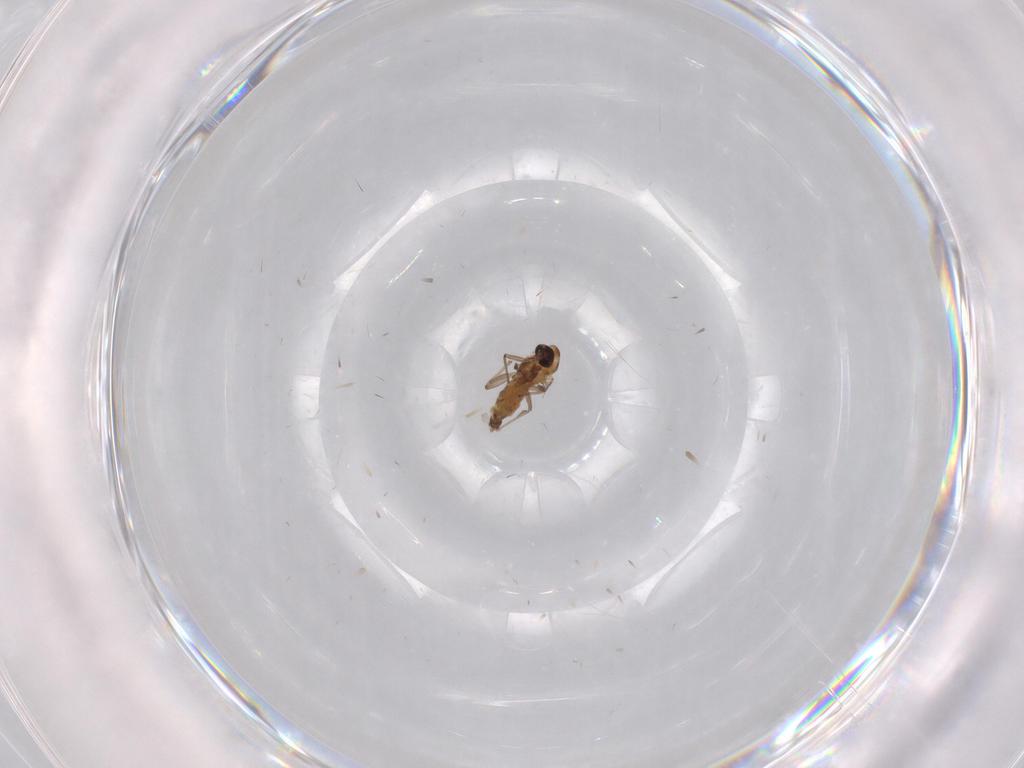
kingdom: Animalia
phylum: Arthropoda
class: Insecta
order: Diptera
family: Chironomidae
